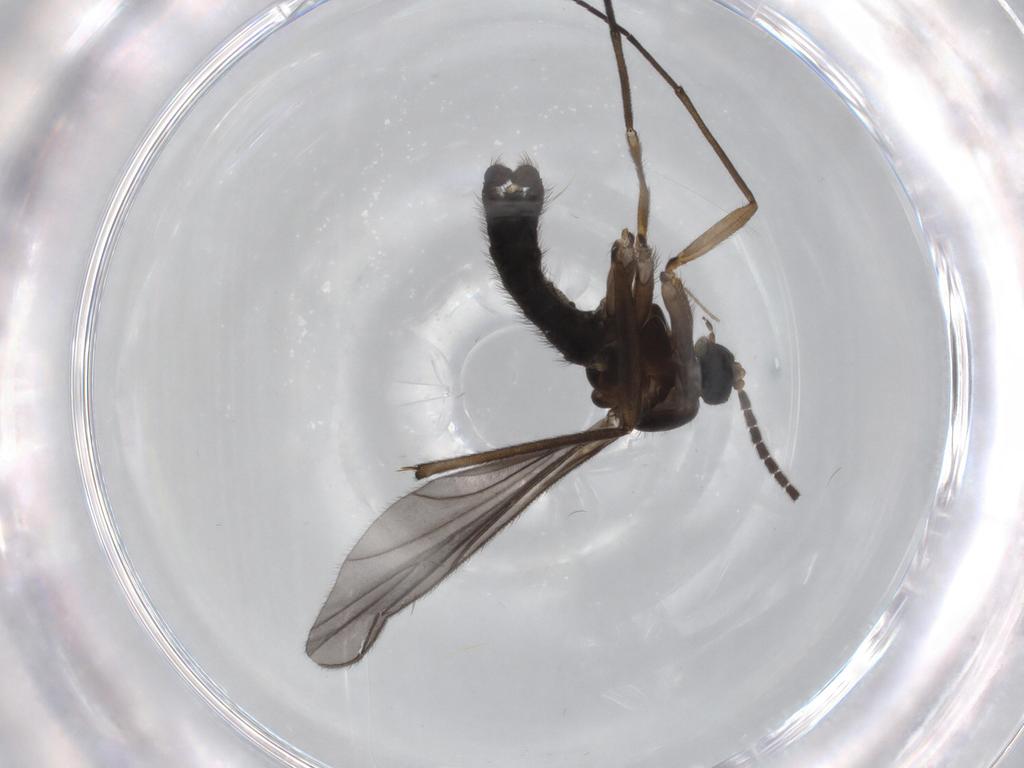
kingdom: Animalia
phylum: Arthropoda
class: Insecta
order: Diptera
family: Sciaridae
